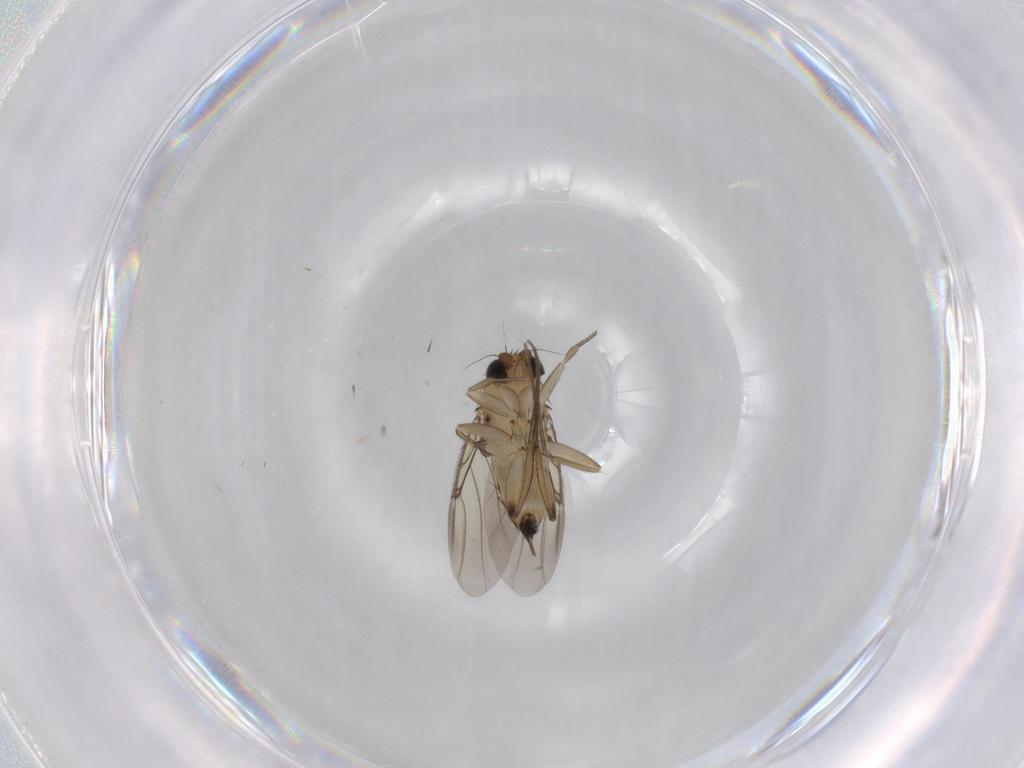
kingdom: Animalia
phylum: Arthropoda
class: Insecta
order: Diptera
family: Phoridae
